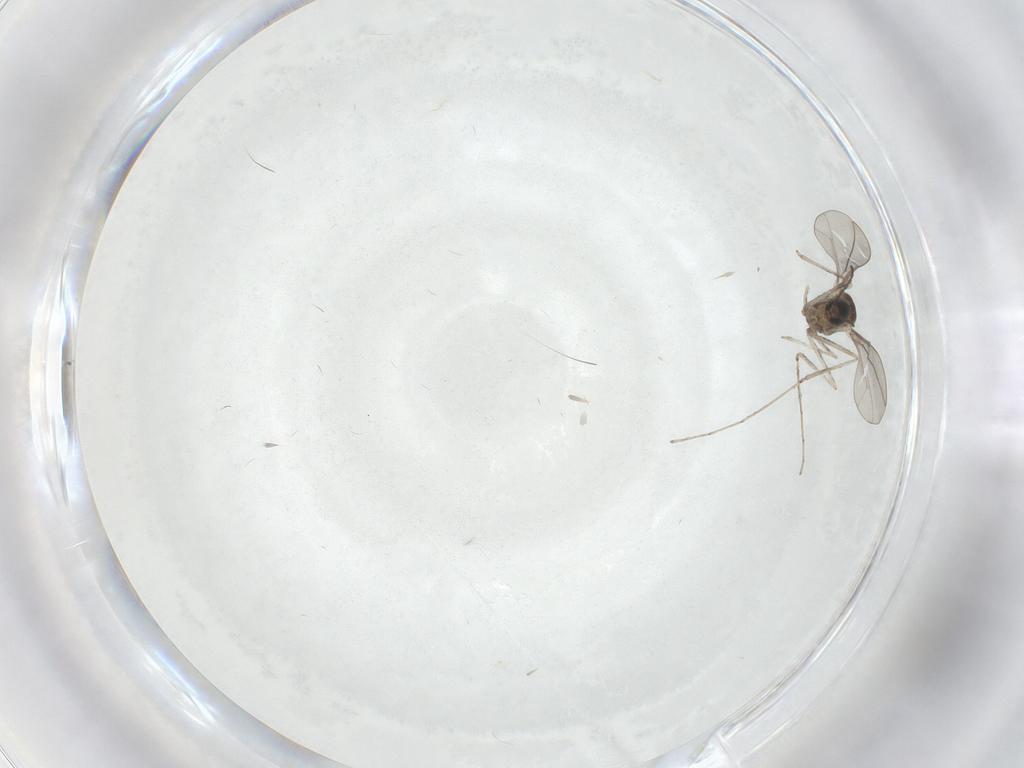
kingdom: Animalia
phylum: Arthropoda
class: Insecta
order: Diptera
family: Cecidomyiidae
